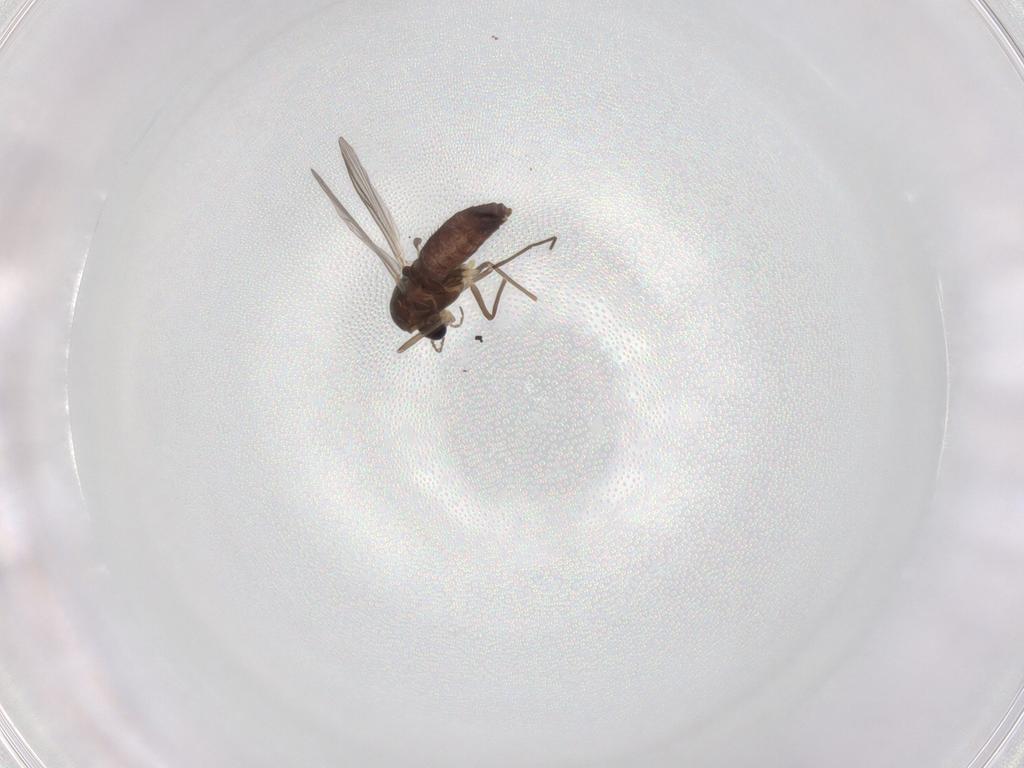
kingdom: Animalia
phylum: Arthropoda
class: Insecta
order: Diptera
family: Chironomidae
